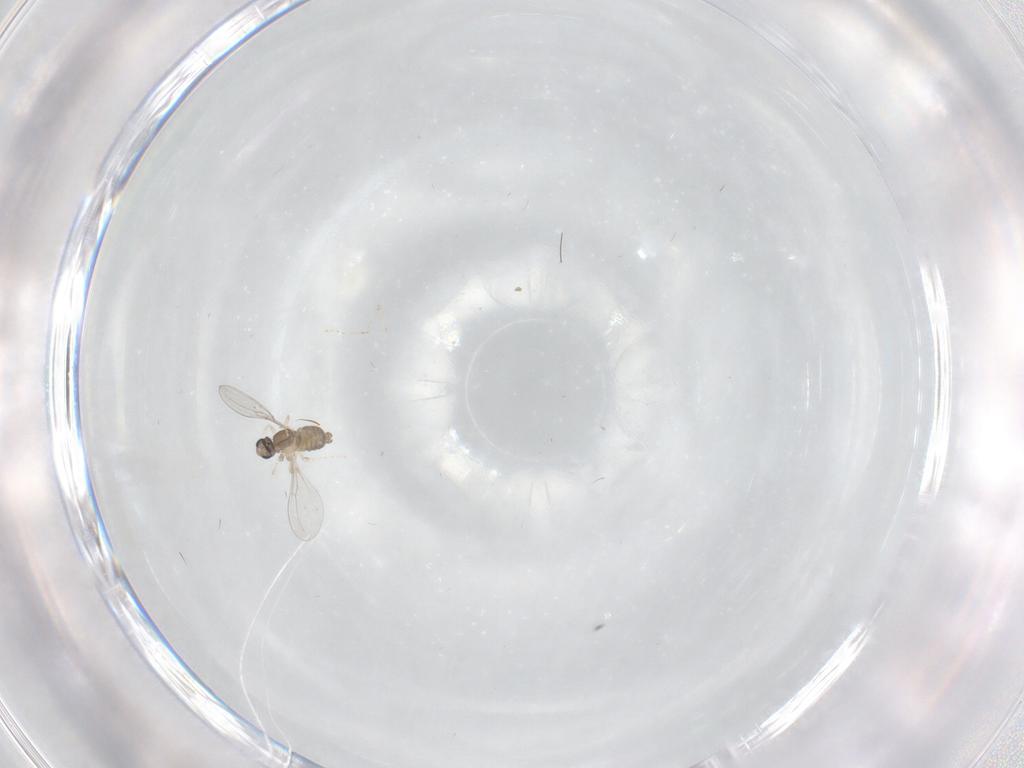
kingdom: Animalia
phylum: Arthropoda
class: Insecta
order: Diptera
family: Cecidomyiidae
